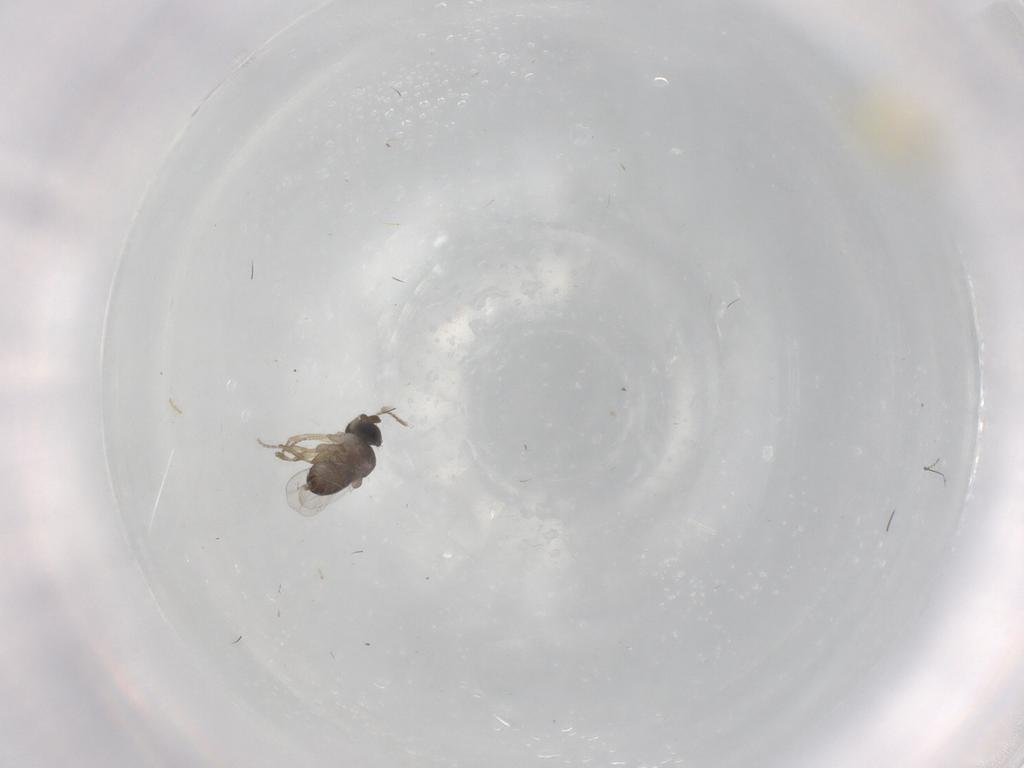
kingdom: Animalia
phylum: Arthropoda
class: Insecta
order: Diptera
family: Phoridae
